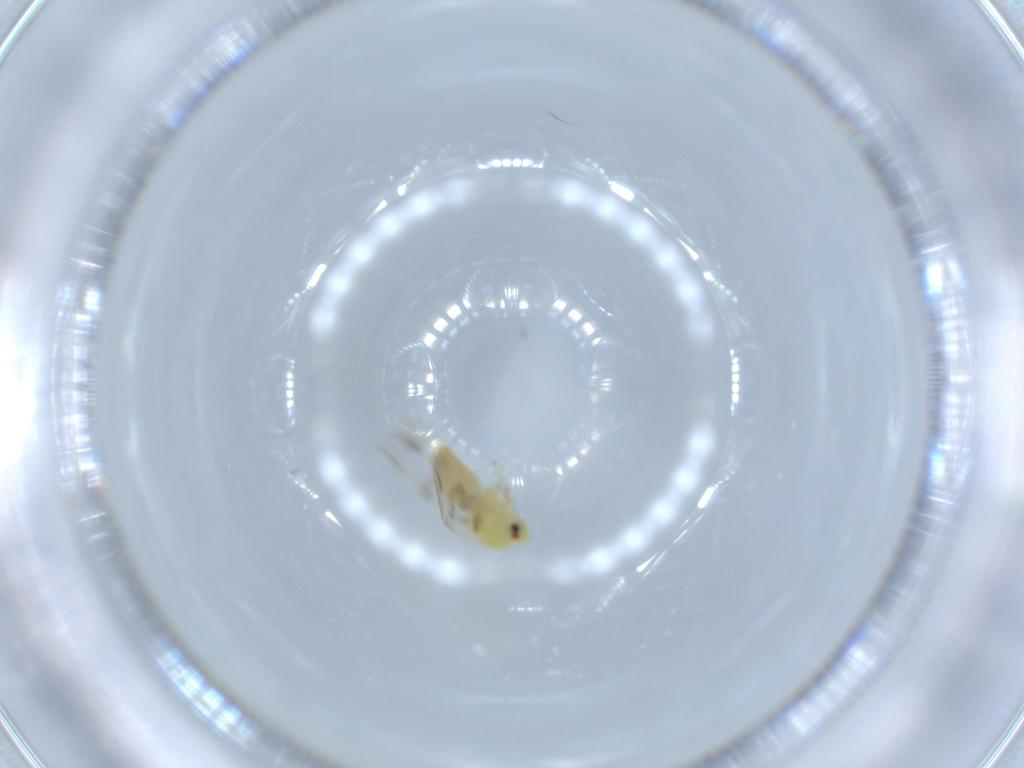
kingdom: Animalia
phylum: Arthropoda
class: Insecta
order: Hemiptera
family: Aleyrodidae
